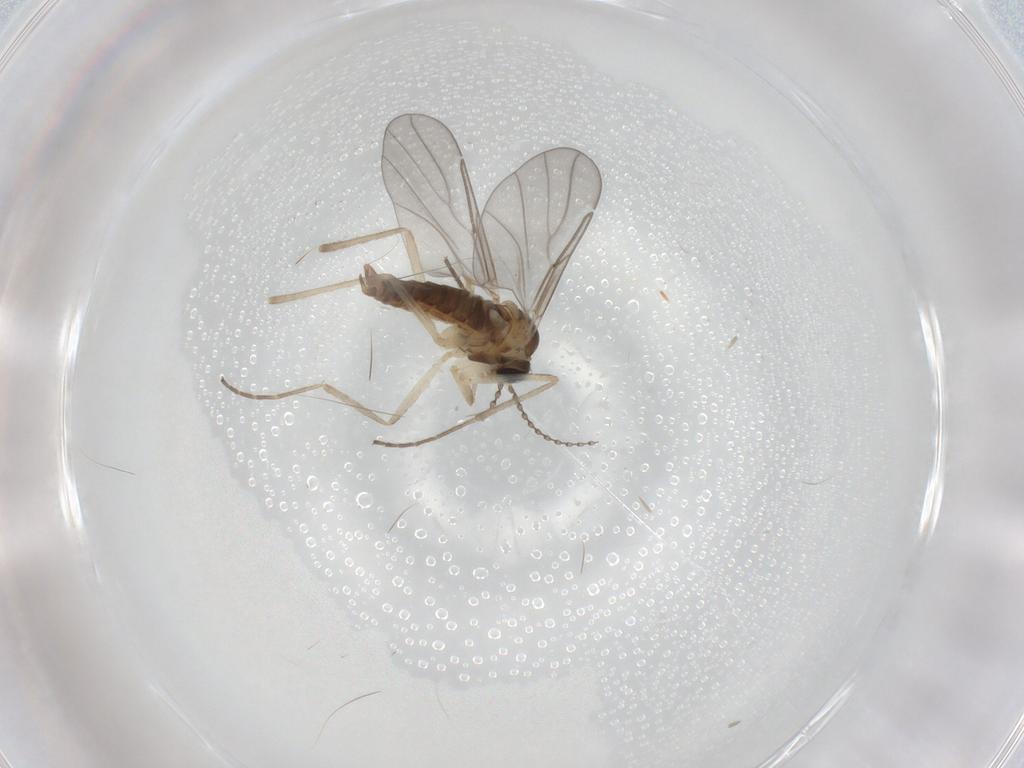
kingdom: Animalia
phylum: Arthropoda
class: Insecta
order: Diptera
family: Cecidomyiidae
